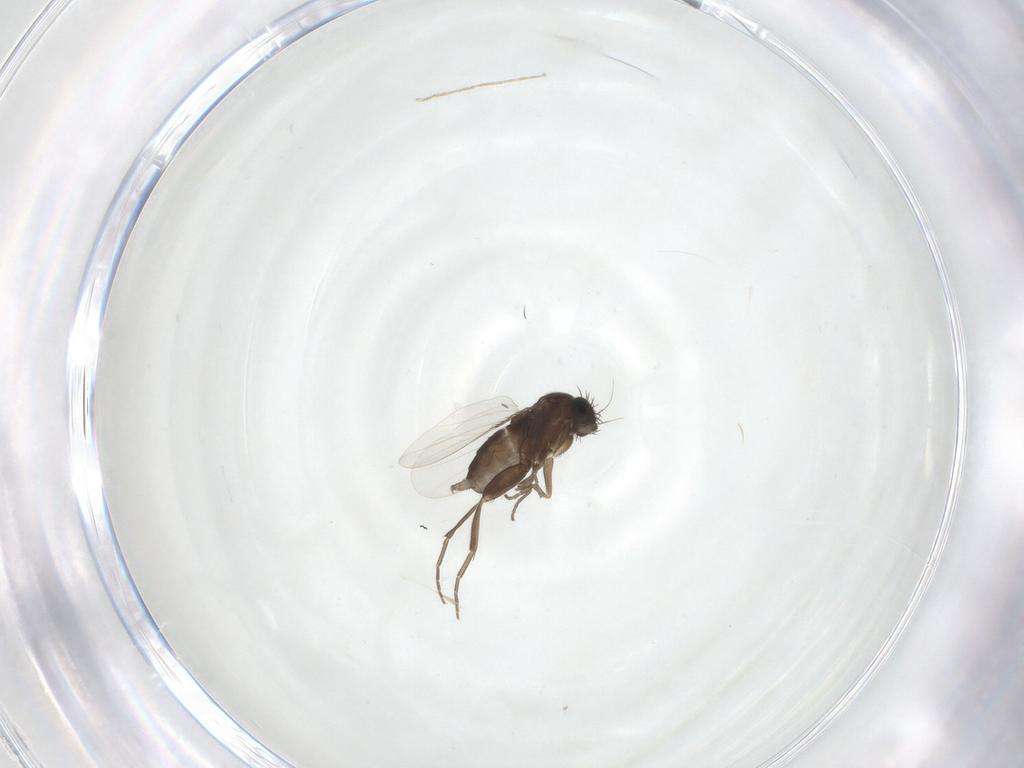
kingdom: Animalia
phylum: Arthropoda
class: Insecta
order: Diptera
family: Phoridae
